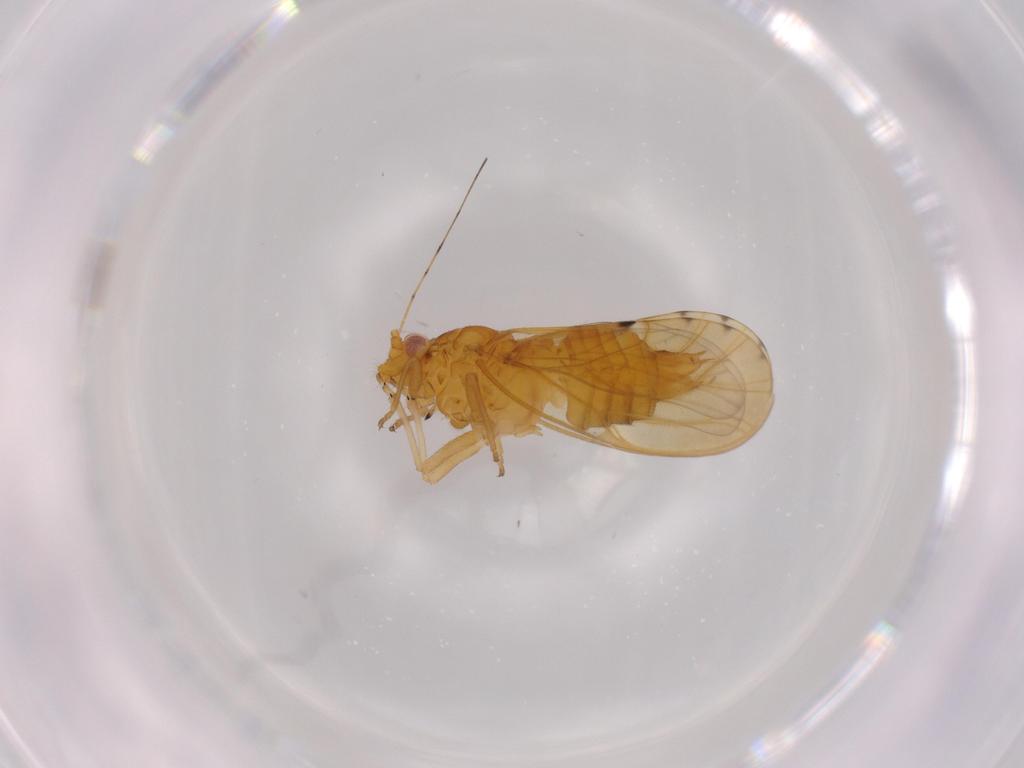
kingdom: Animalia
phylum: Arthropoda
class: Insecta
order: Hemiptera
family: Psylloidea_incertae_sedis
